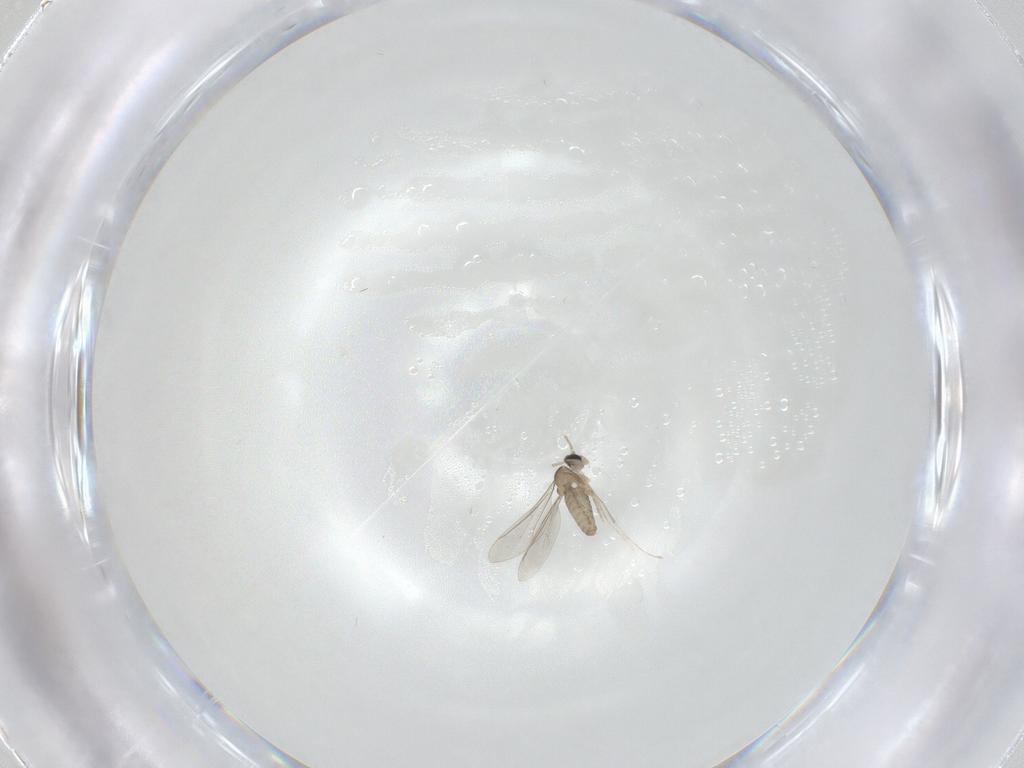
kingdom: Animalia
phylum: Arthropoda
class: Insecta
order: Diptera
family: Cecidomyiidae
